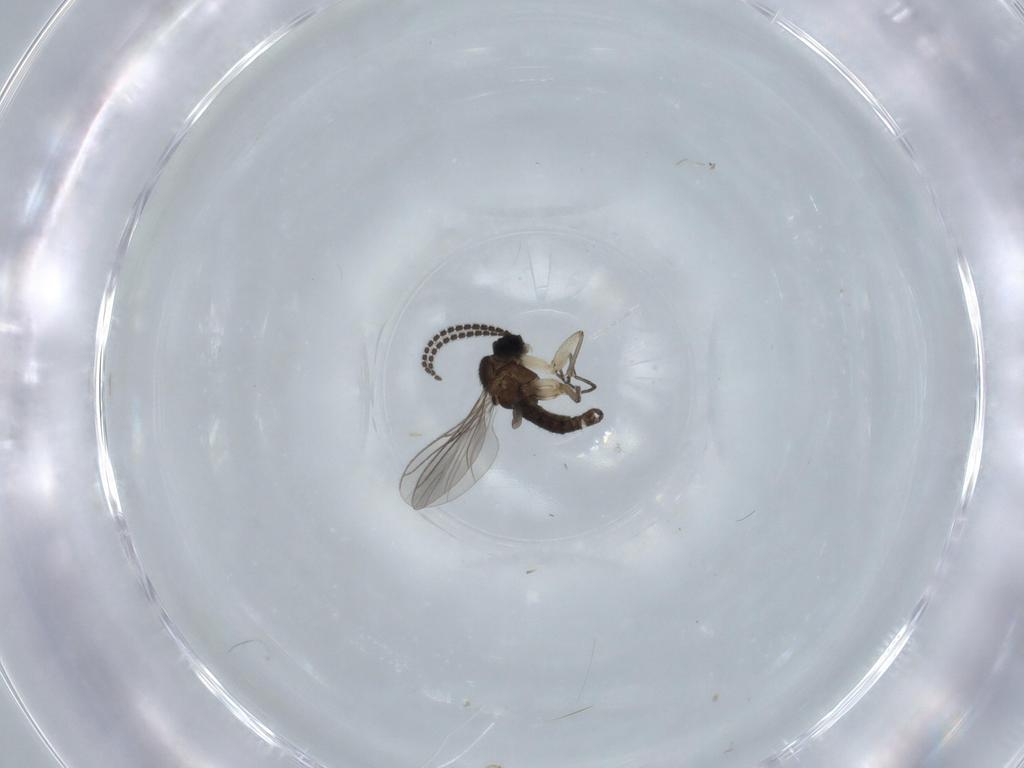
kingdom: Animalia
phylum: Arthropoda
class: Insecta
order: Diptera
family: Sciaridae
